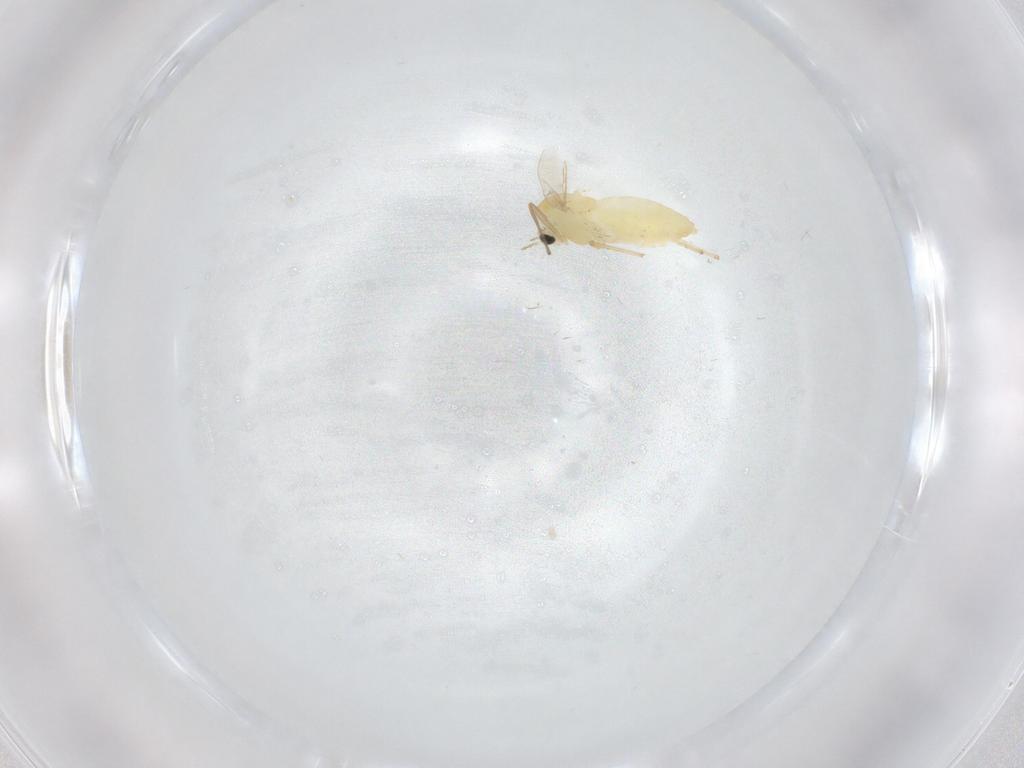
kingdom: Animalia
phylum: Arthropoda
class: Insecta
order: Diptera
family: Chironomidae
